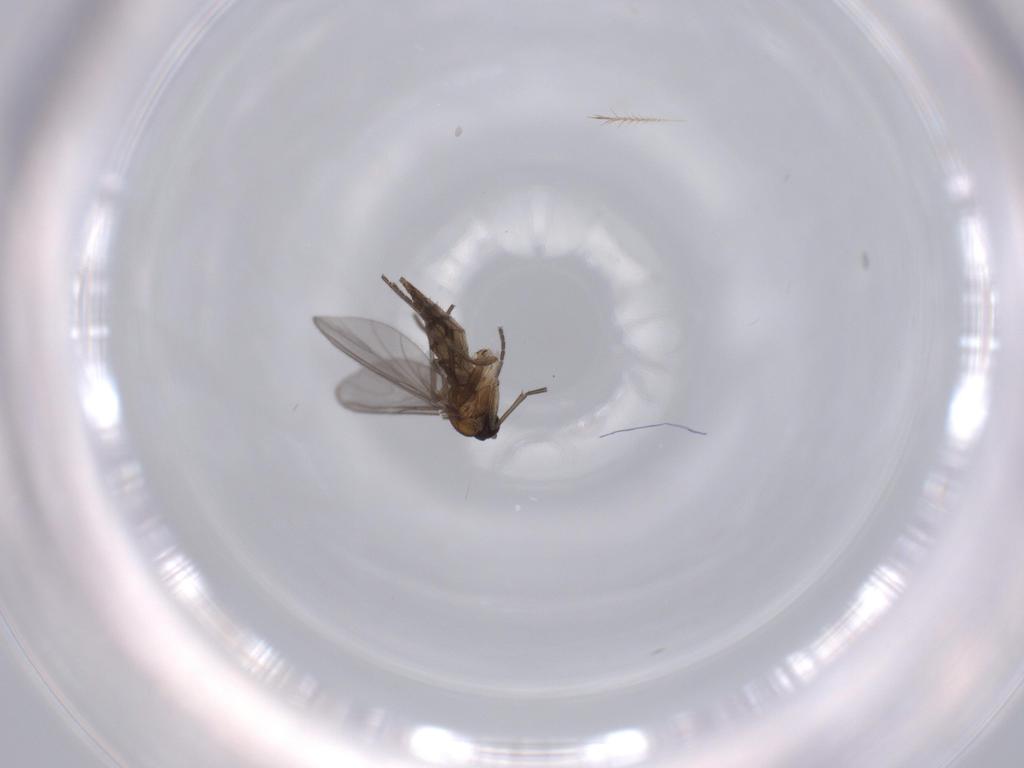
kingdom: Animalia
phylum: Arthropoda
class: Insecta
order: Diptera
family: Sciaridae
